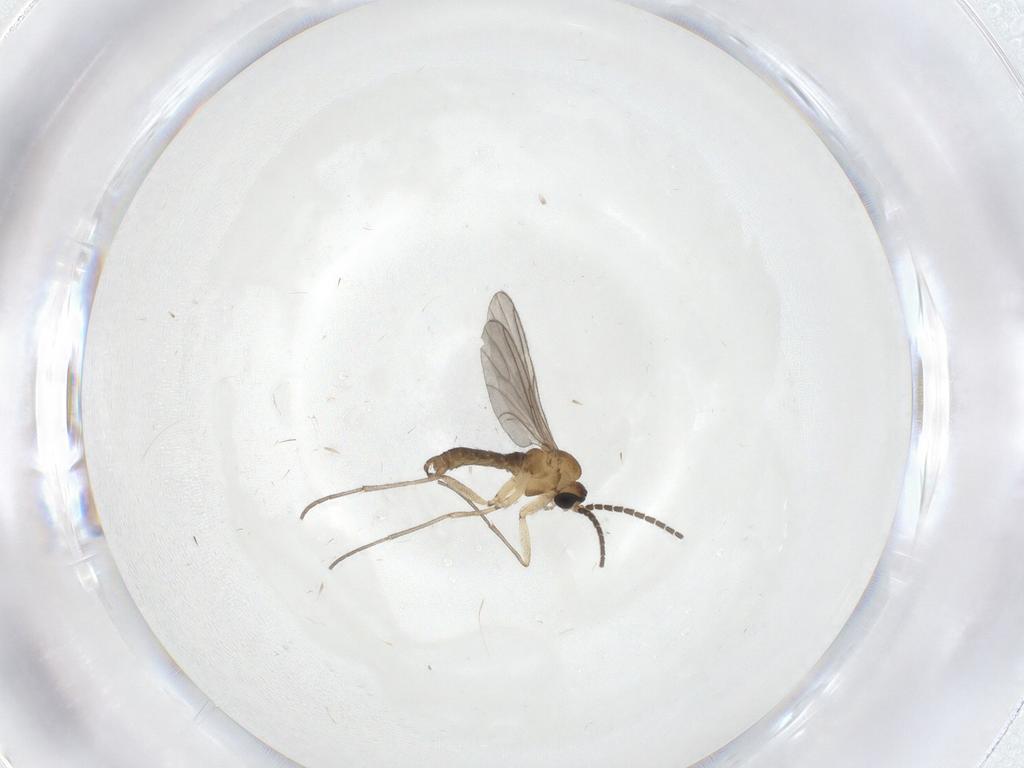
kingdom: Animalia
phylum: Arthropoda
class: Insecta
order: Diptera
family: Sciaridae
